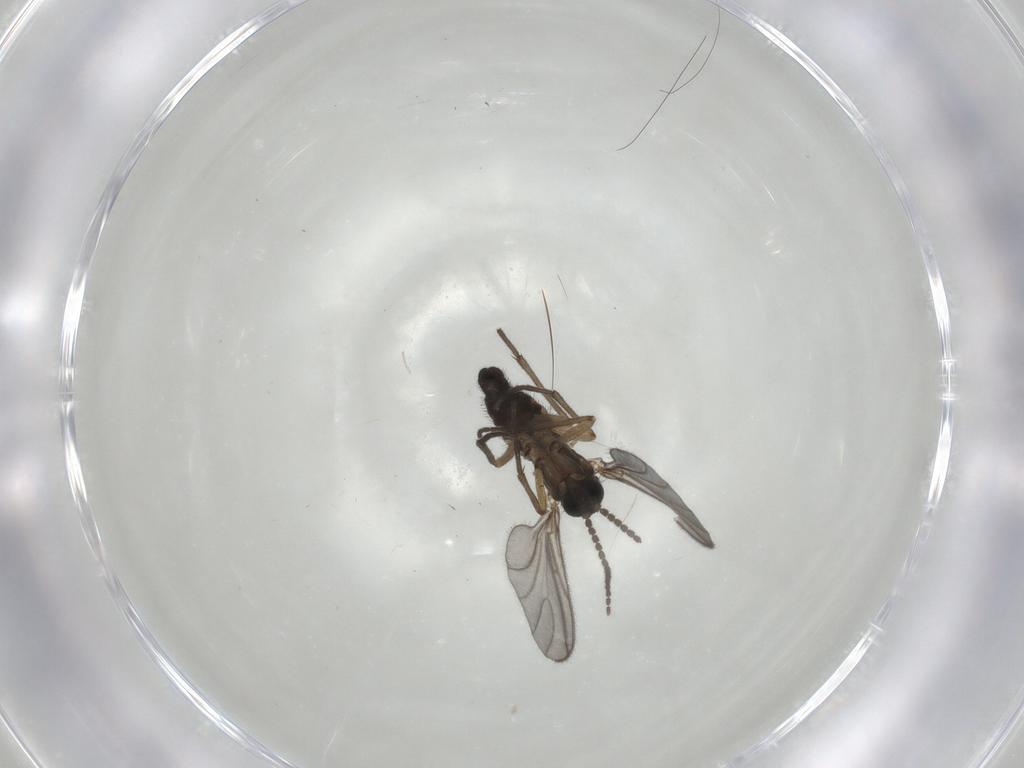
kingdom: Animalia
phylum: Arthropoda
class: Insecta
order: Diptera
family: Sciaridae
